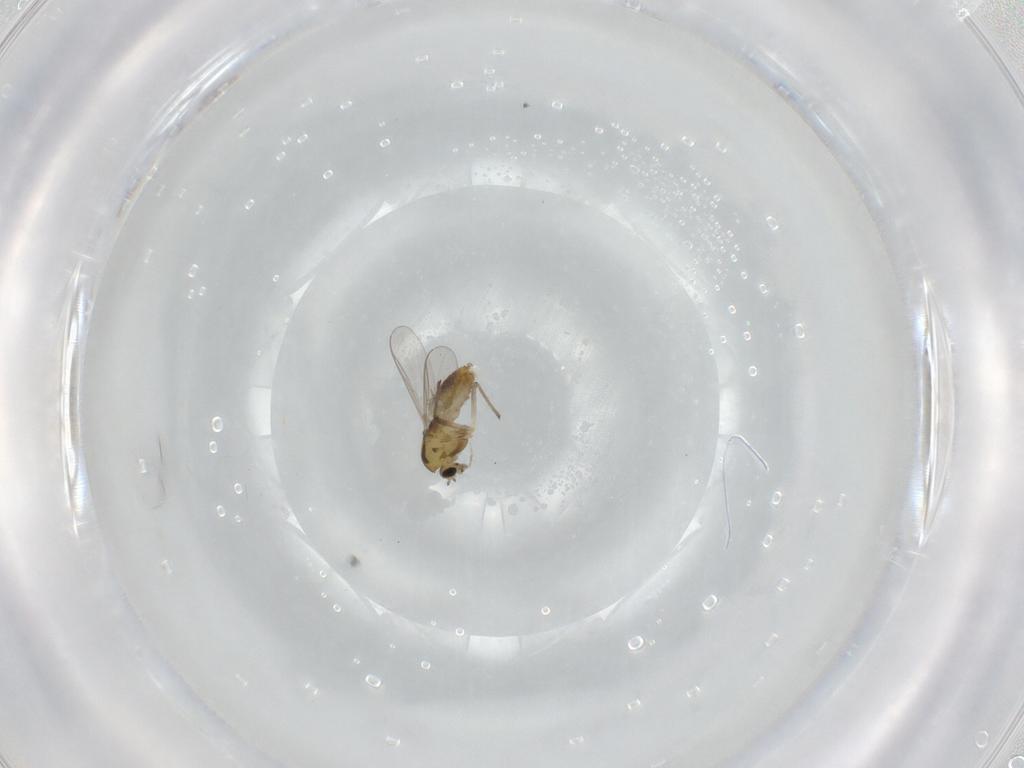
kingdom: Animalia
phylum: Arthropoda
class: Insecta
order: Diptera
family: Chironomidae
